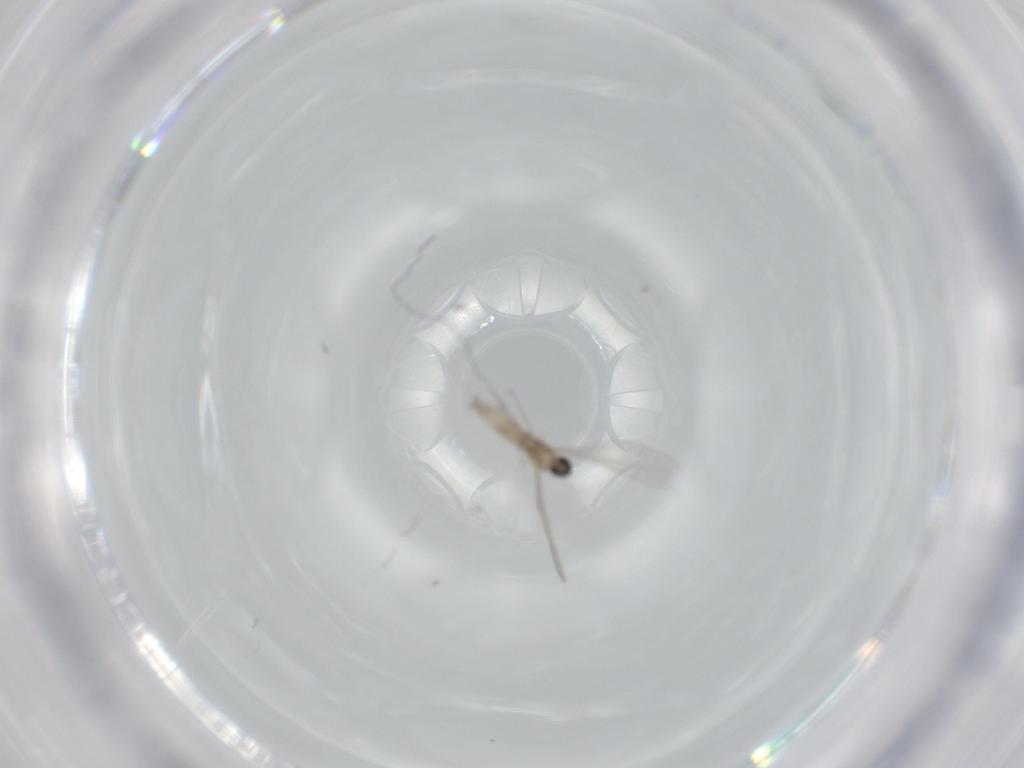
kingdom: Animalia
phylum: Arthropoda
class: Insecta
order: Diptera
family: Cecidomyiidae
